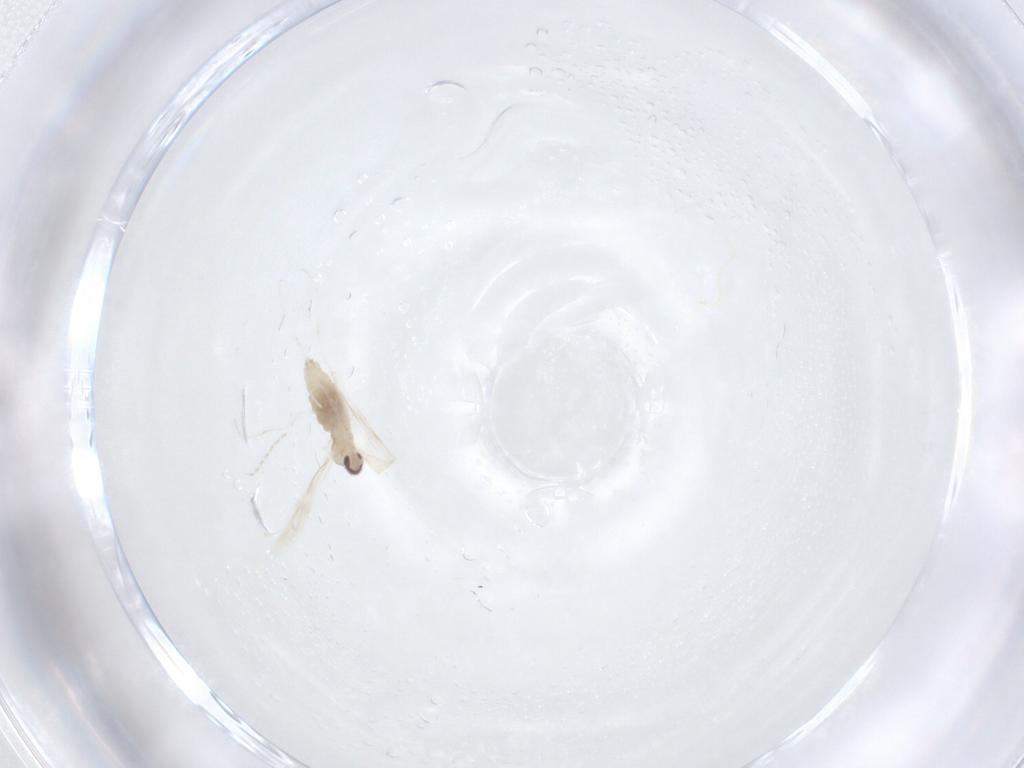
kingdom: Animalia
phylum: Arthropoda
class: Insecta
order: Diptera
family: Cecidomyiidae
